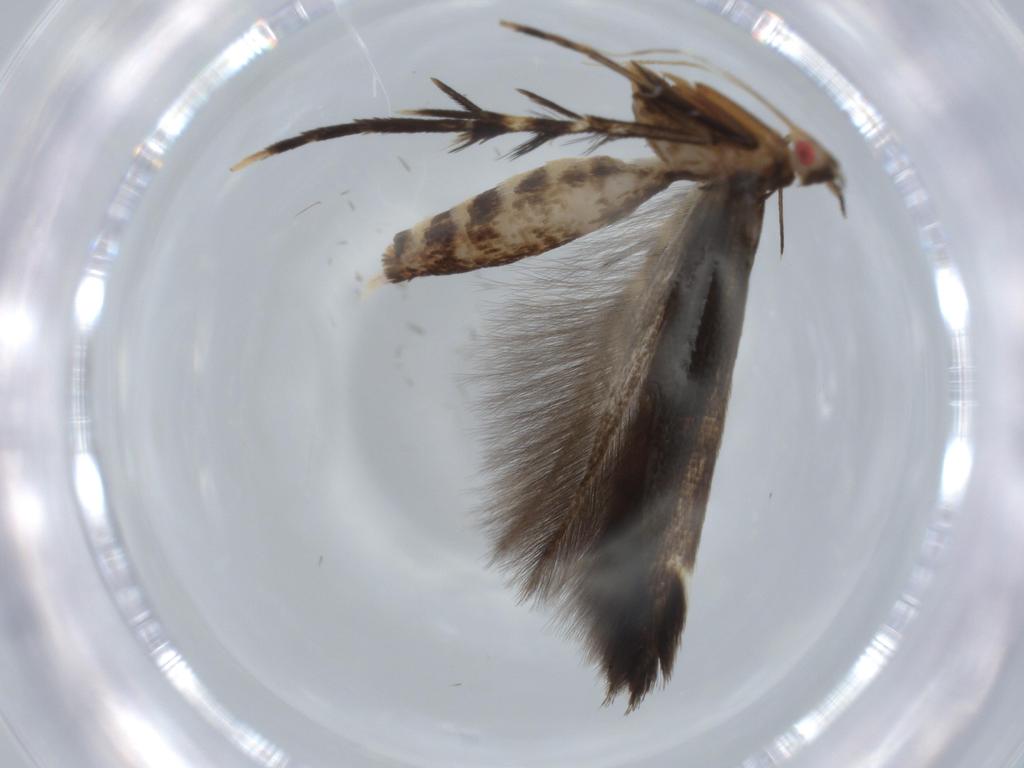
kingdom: Animalia
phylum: Arthropoda
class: Insecta
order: Lepidoptera
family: Cosmopterigidae
